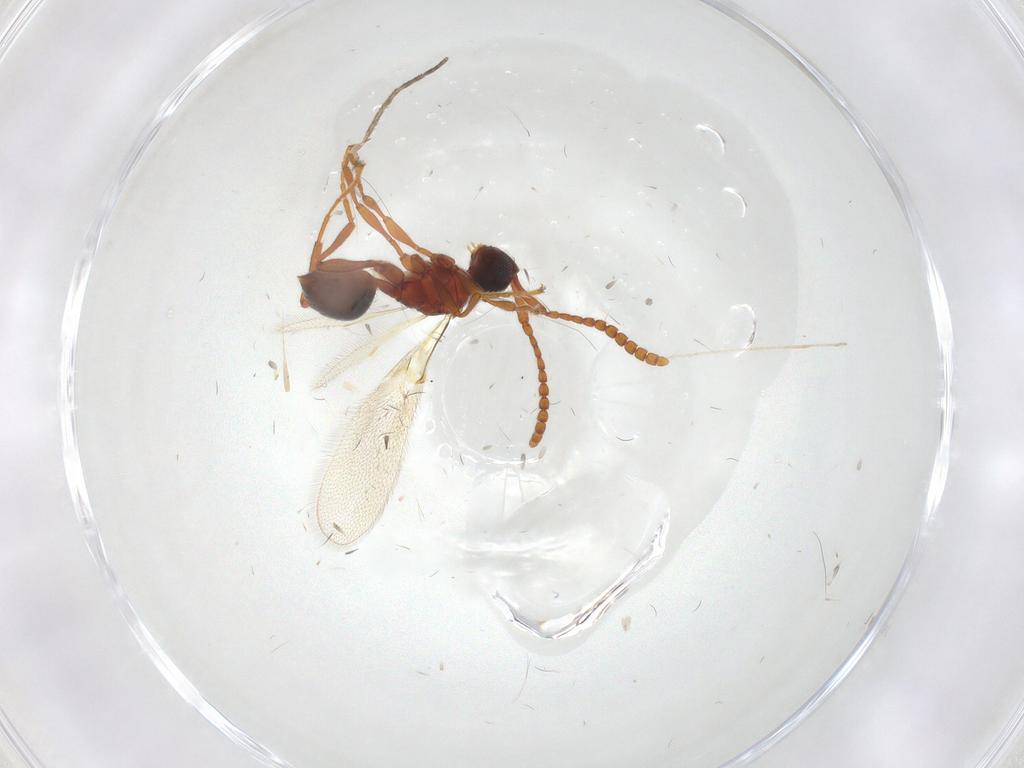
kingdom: Animalia
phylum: Arthropoda
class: Insecta
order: Hymenoptera
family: Diapriidae
